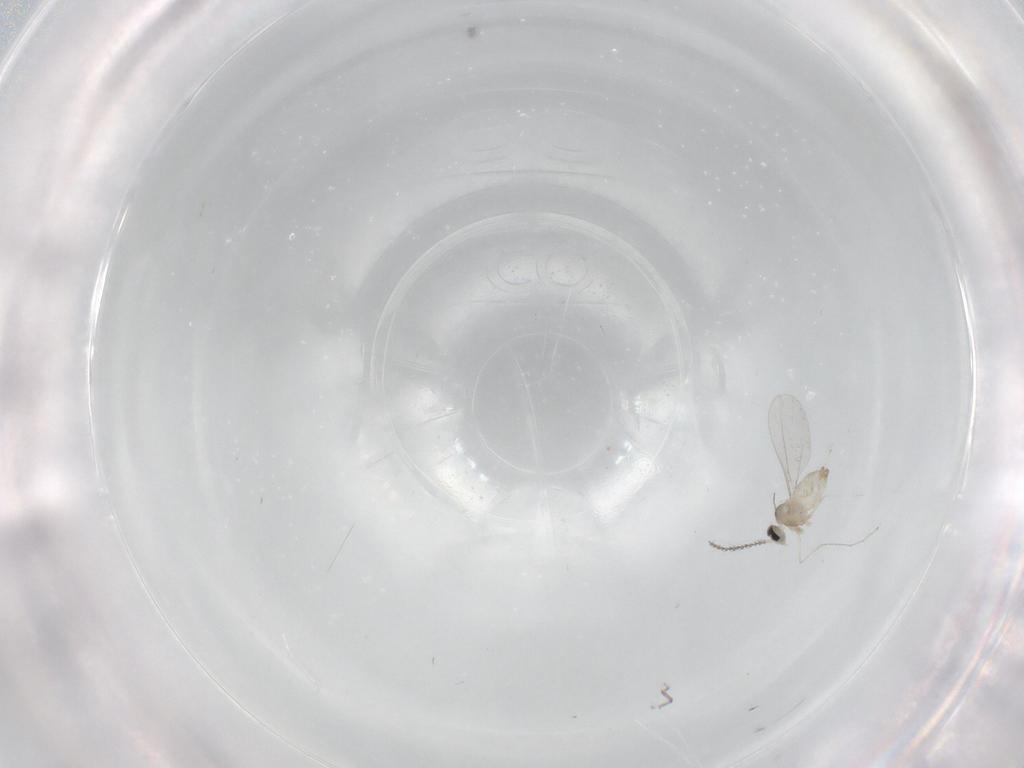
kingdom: Animalia
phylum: Arthropoda
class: Insecta
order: Diptera
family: Cecidomyiidae
